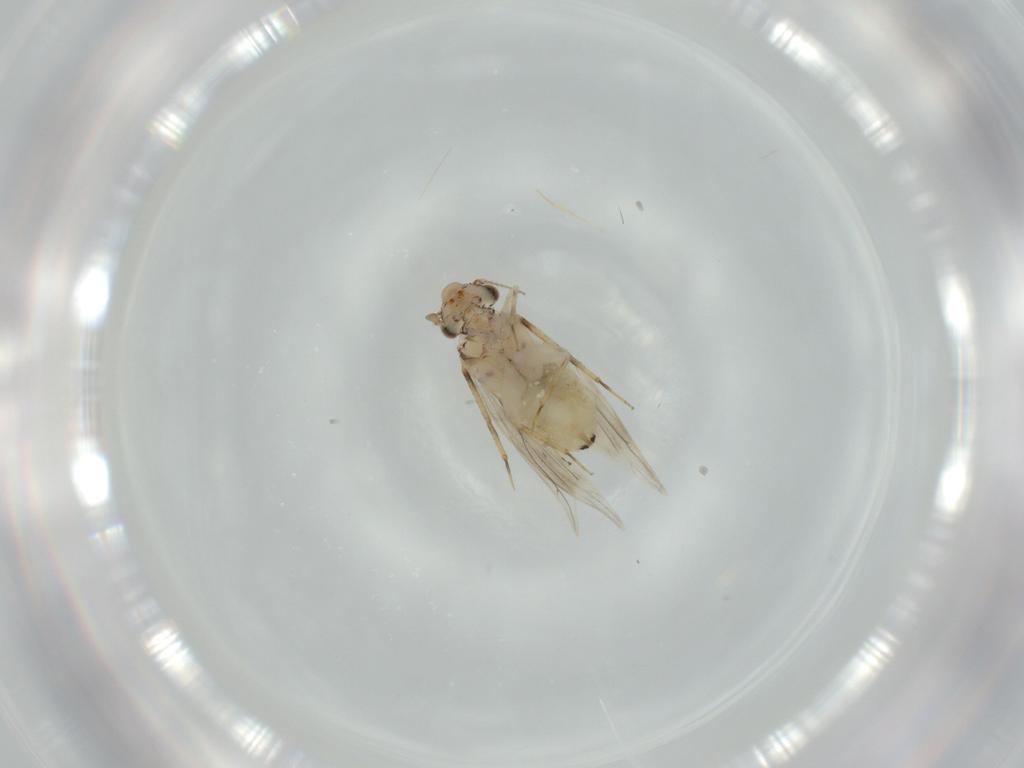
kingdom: Animalia
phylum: Arthropoda
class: Insecta
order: Psocodea
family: Lepidopsocidae
